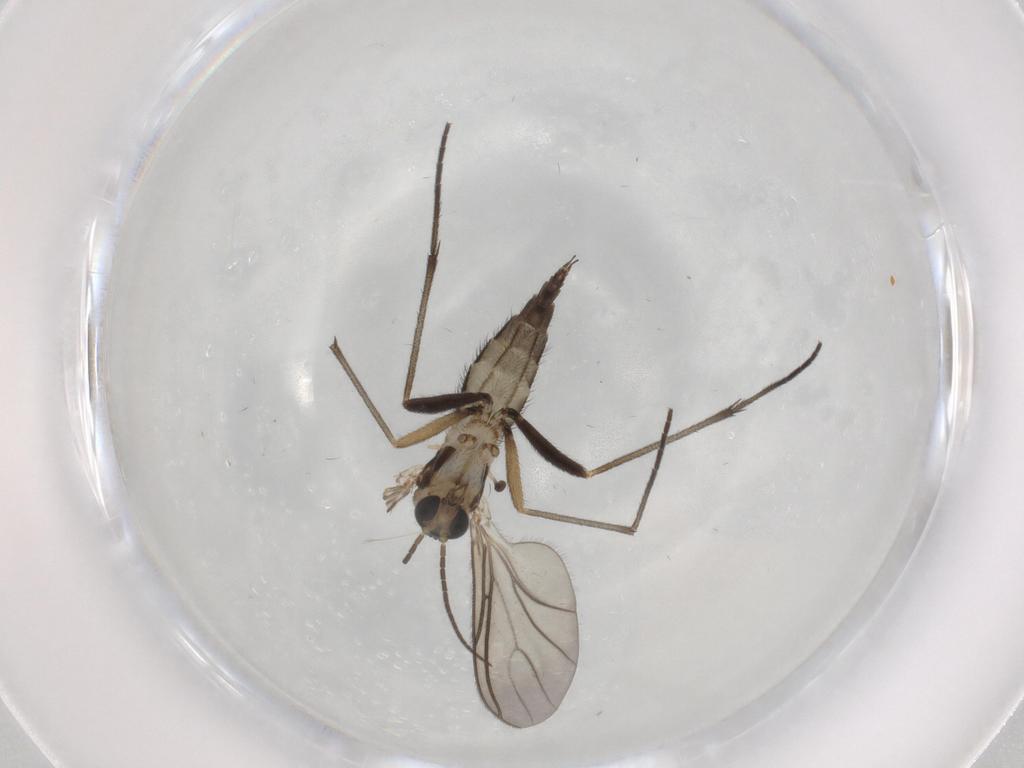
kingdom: Animalia
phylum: Arthropoda
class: Insecta
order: Diptera
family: Sciaridae
